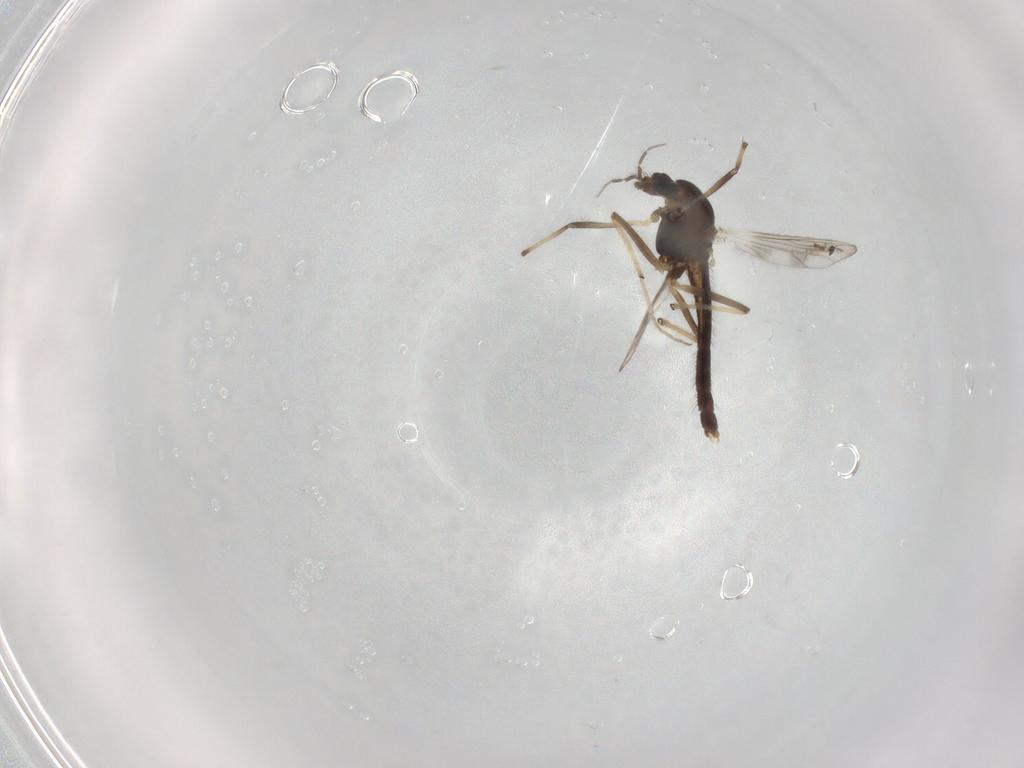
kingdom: Animalia
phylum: Arthropoda
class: Insecta
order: Diptera
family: Chironomidae
